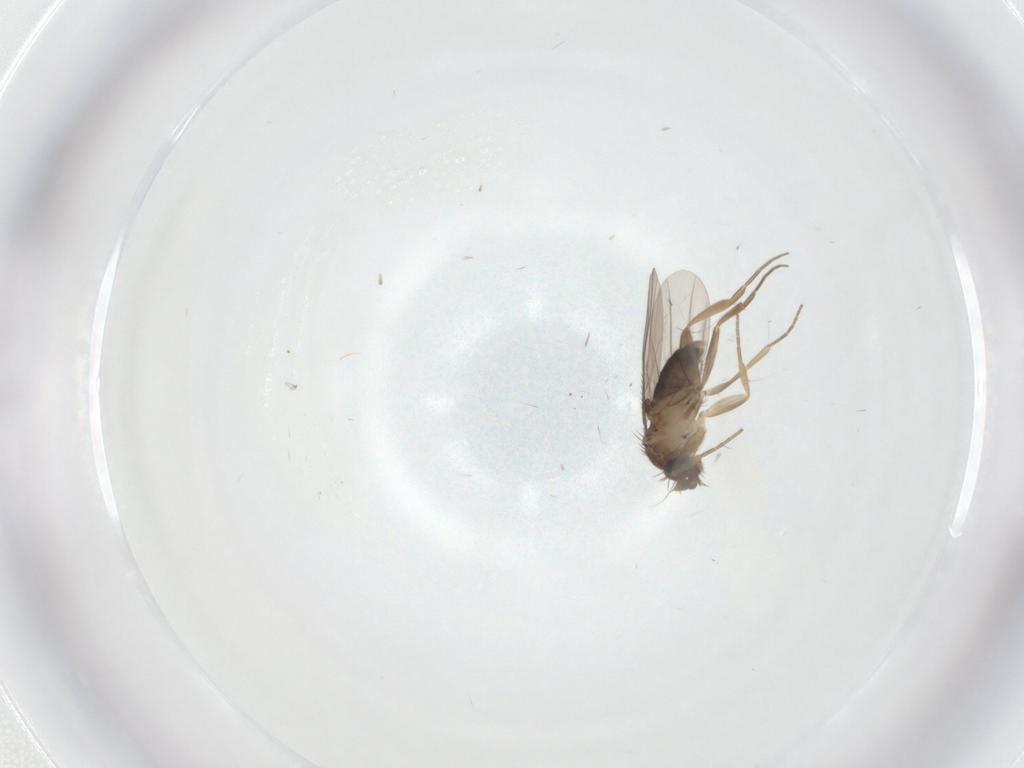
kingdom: Animalia
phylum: Arthropoda
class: Insecta
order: Diptera
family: Phoridae
